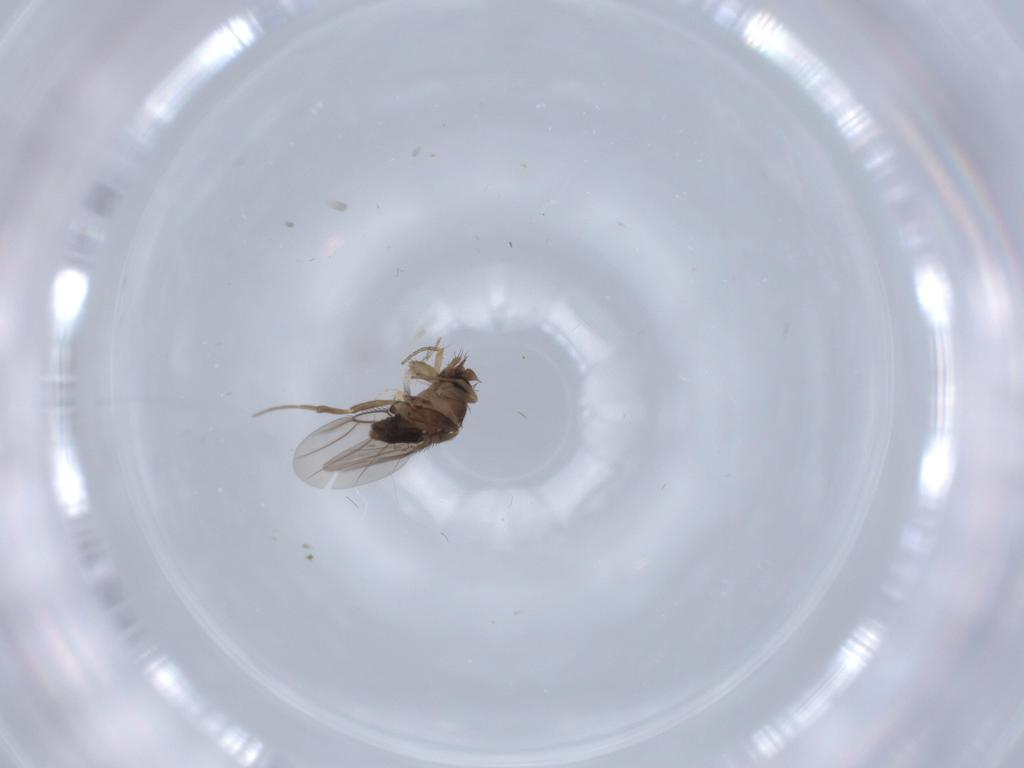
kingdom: Animalia
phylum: Arthropoda
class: Insecta
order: Diptera
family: Phoridae
